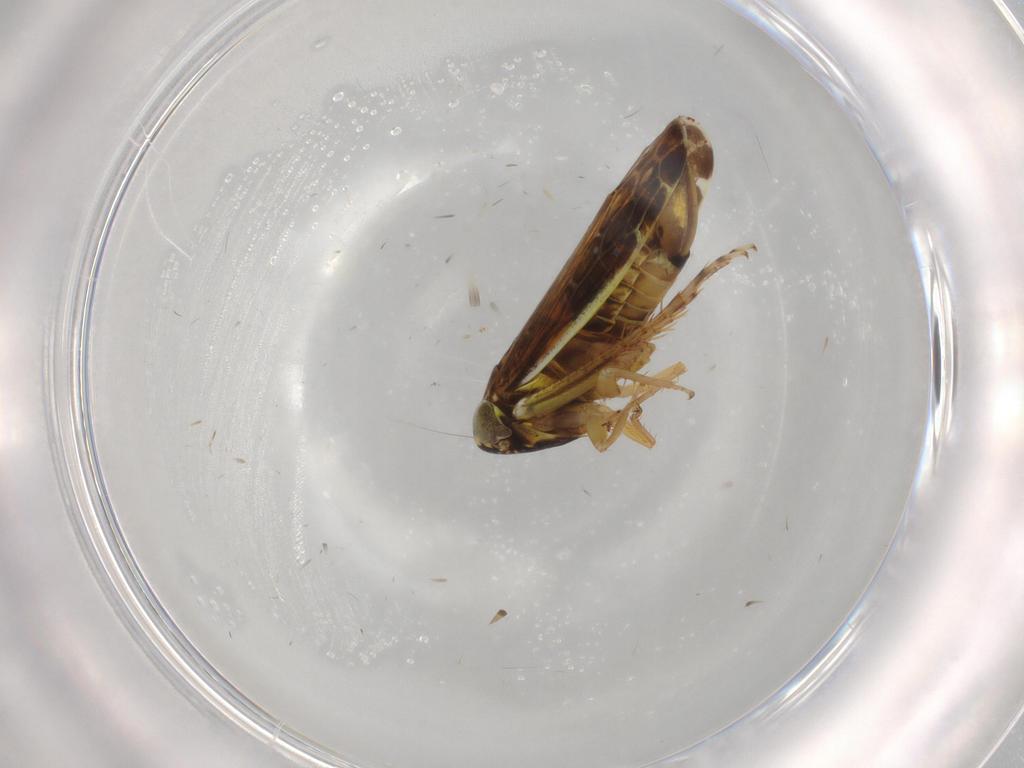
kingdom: Animalia
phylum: Arthropoda
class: Insecta
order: Hemiptera
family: Cicadellidae
